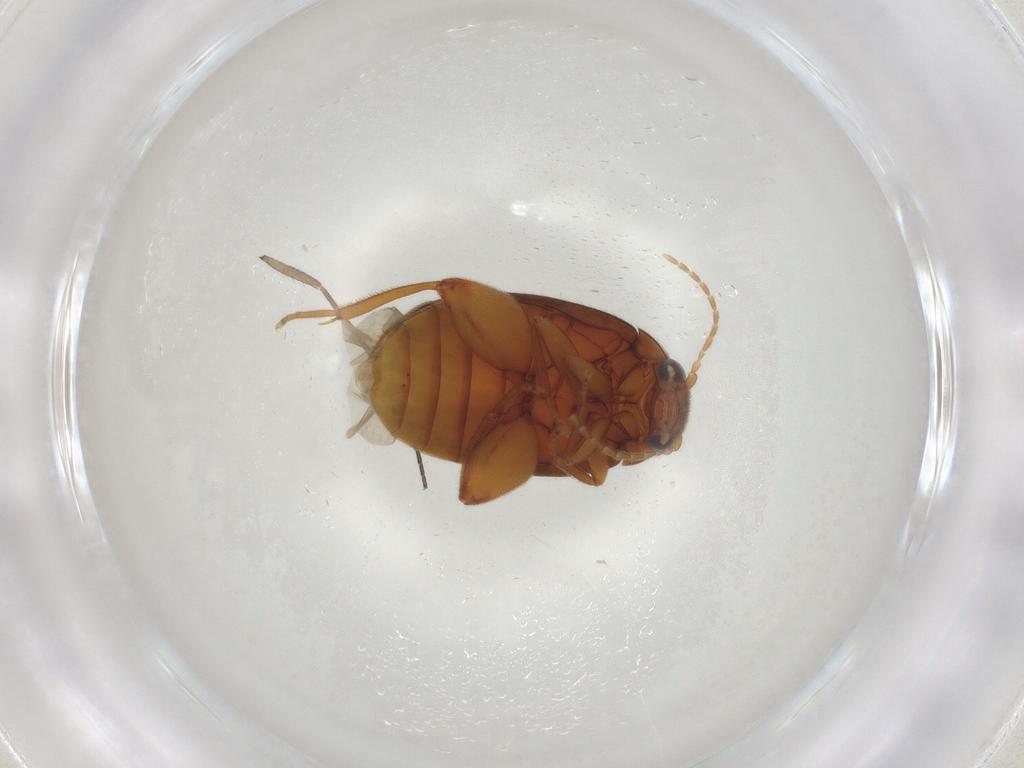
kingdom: Animalia
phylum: Arthropoda
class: Insecta
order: Coleoptera
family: Scirtidae
